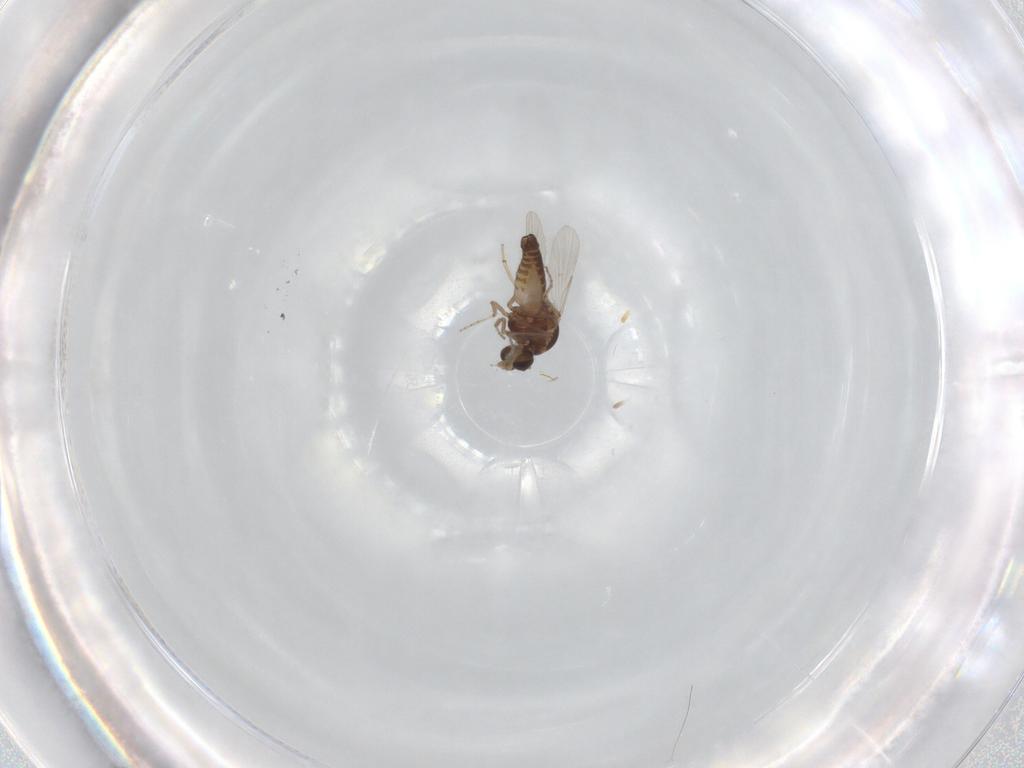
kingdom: Animalia
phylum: Arthropoda
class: Insecta
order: Diptera
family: Ceratopogonidae
